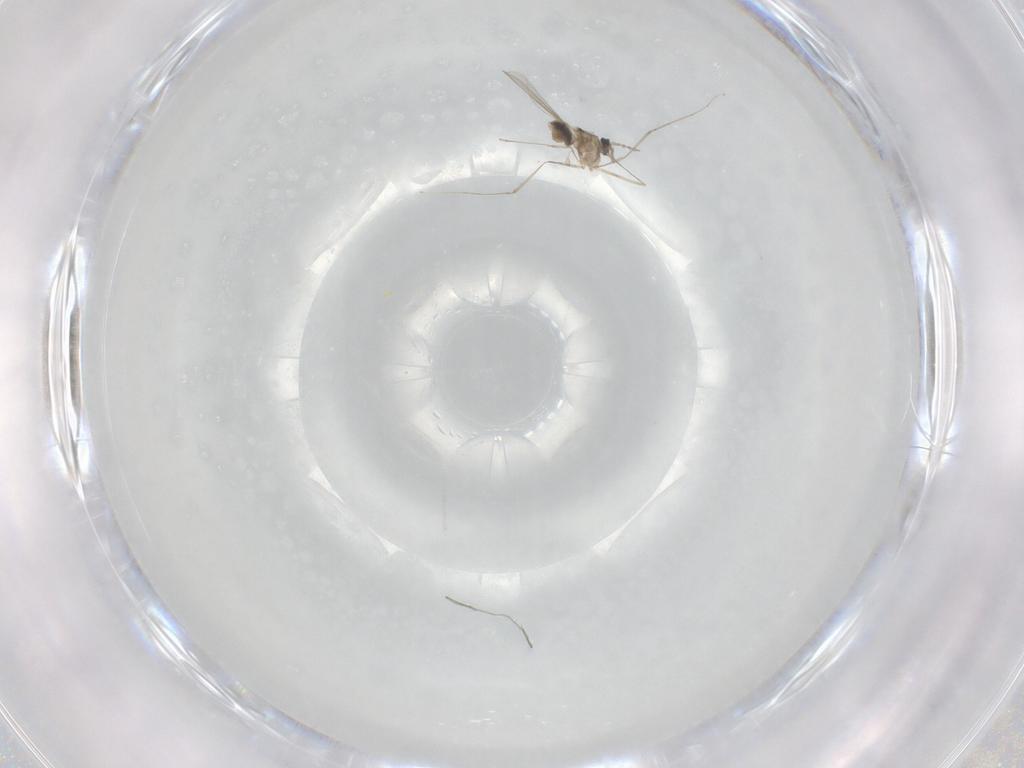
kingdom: Animalia
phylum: Arthropoda
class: Insecta
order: Diptera
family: Cecidomyiidae
